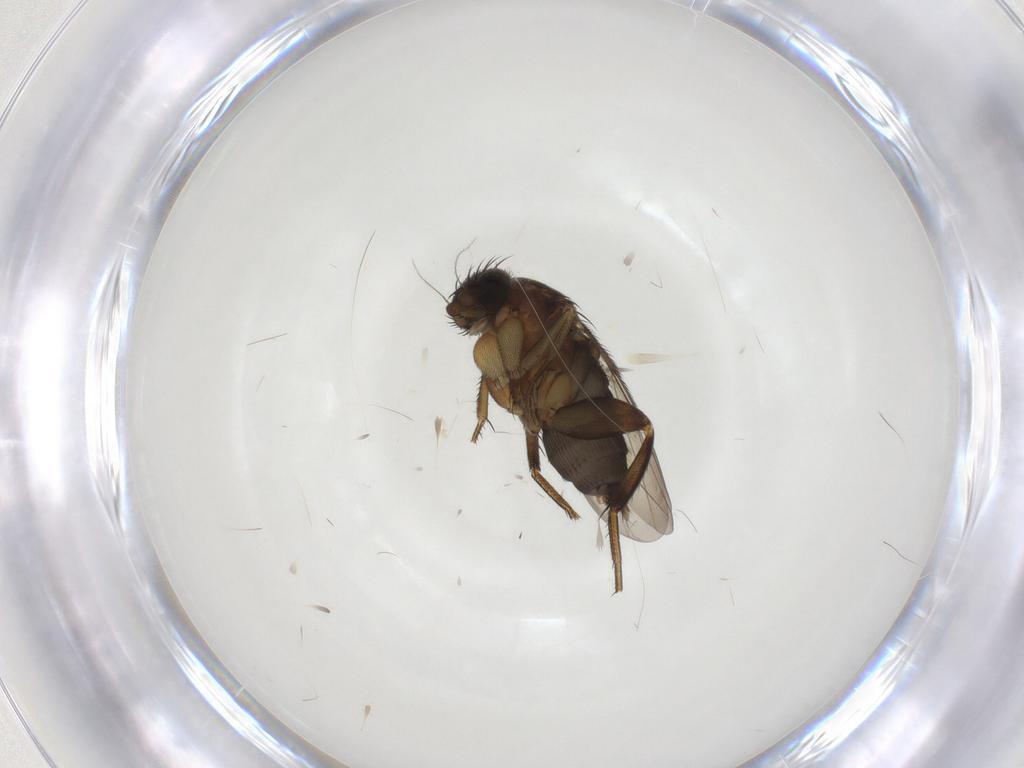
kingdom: Animalia
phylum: Arthropoda
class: Insecta
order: Diptera
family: Phoridae
